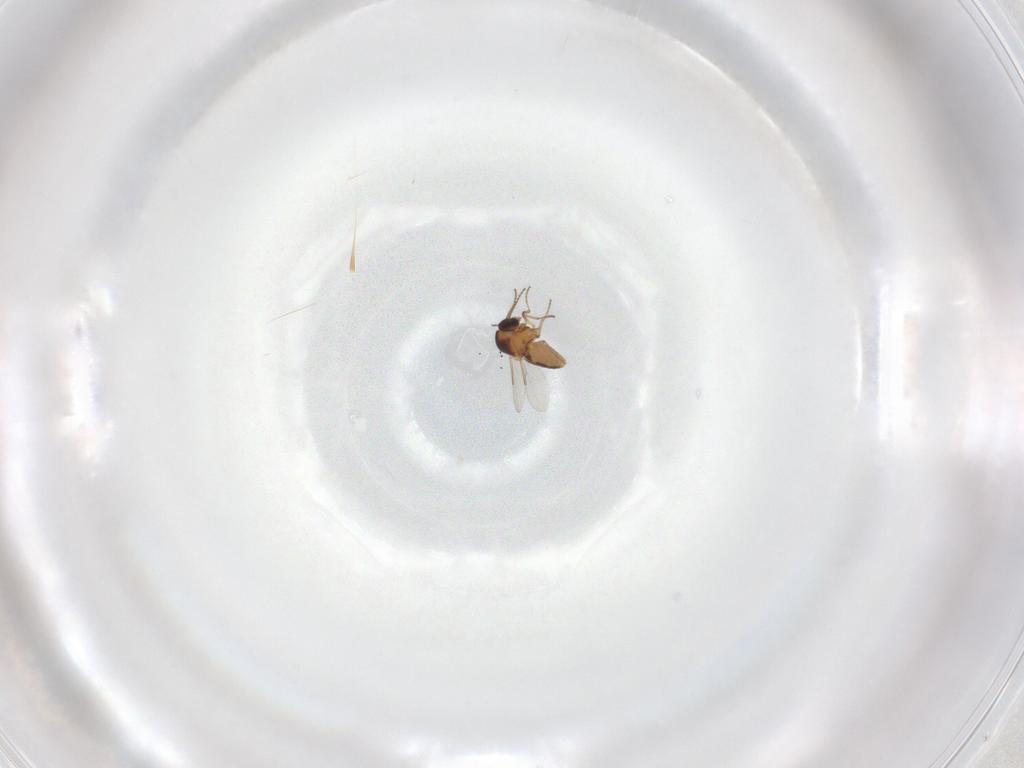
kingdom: Animalia
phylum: Arthropoda
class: Insecta
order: Diptera
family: Ceratopogonidae
